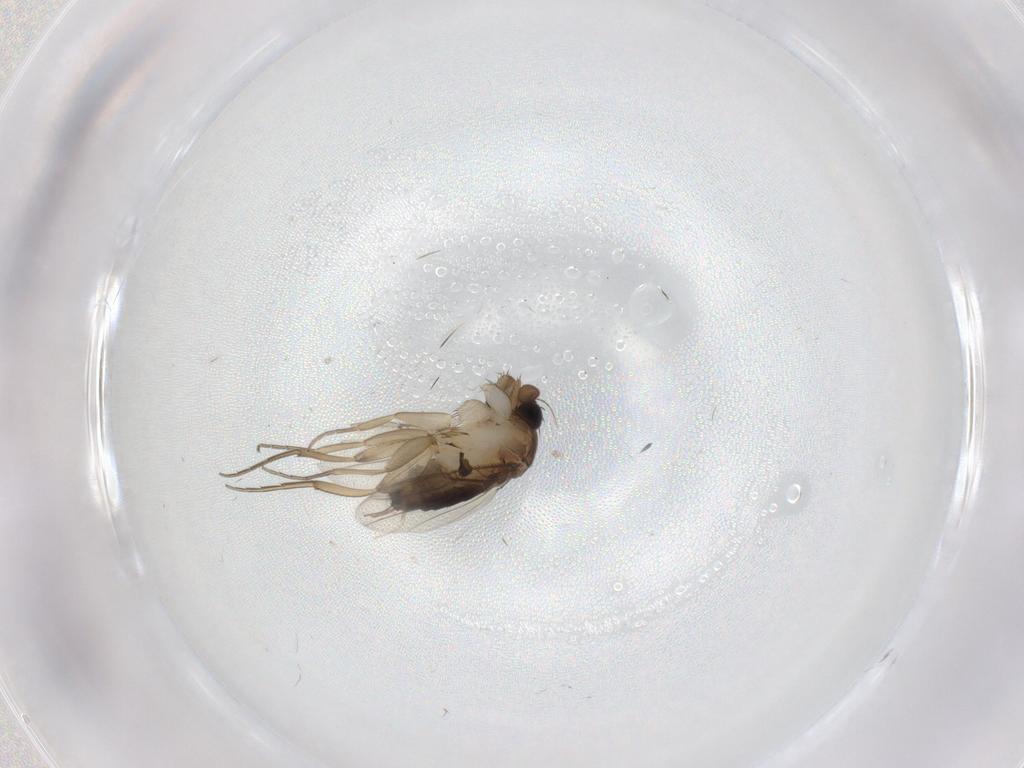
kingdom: Animalia
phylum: Arthropoda
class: Insecta
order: Diptera
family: Phoridae
